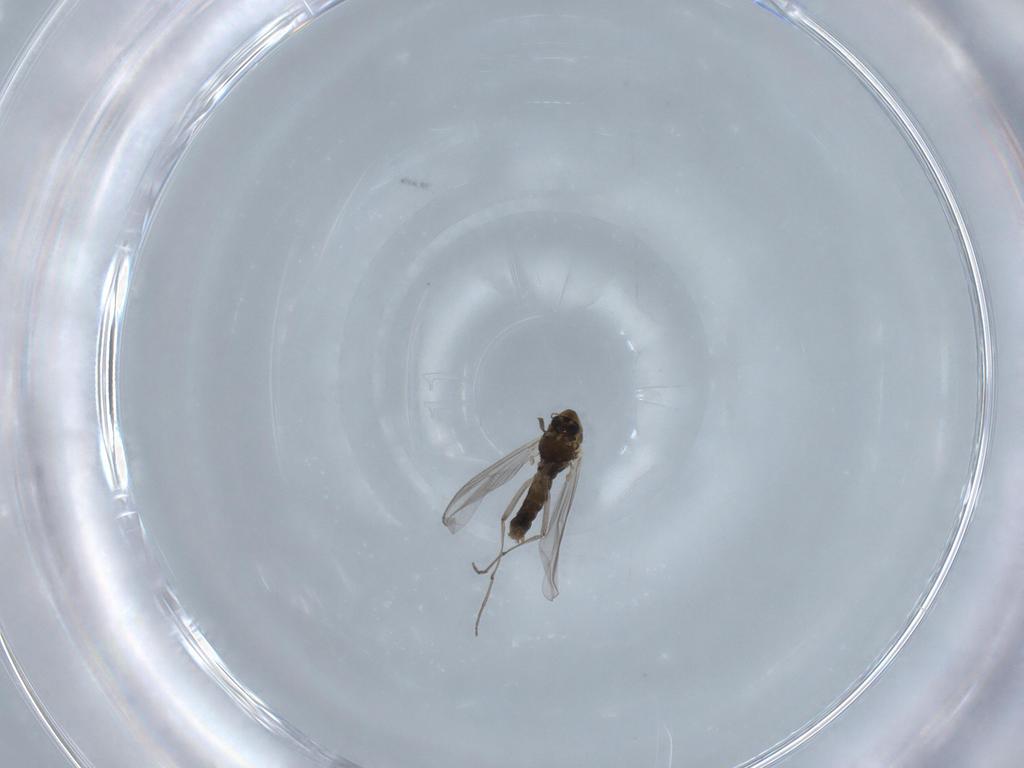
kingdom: Animalia
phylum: Arthropoda
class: Insecta
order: Diptera
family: Chironomidae
